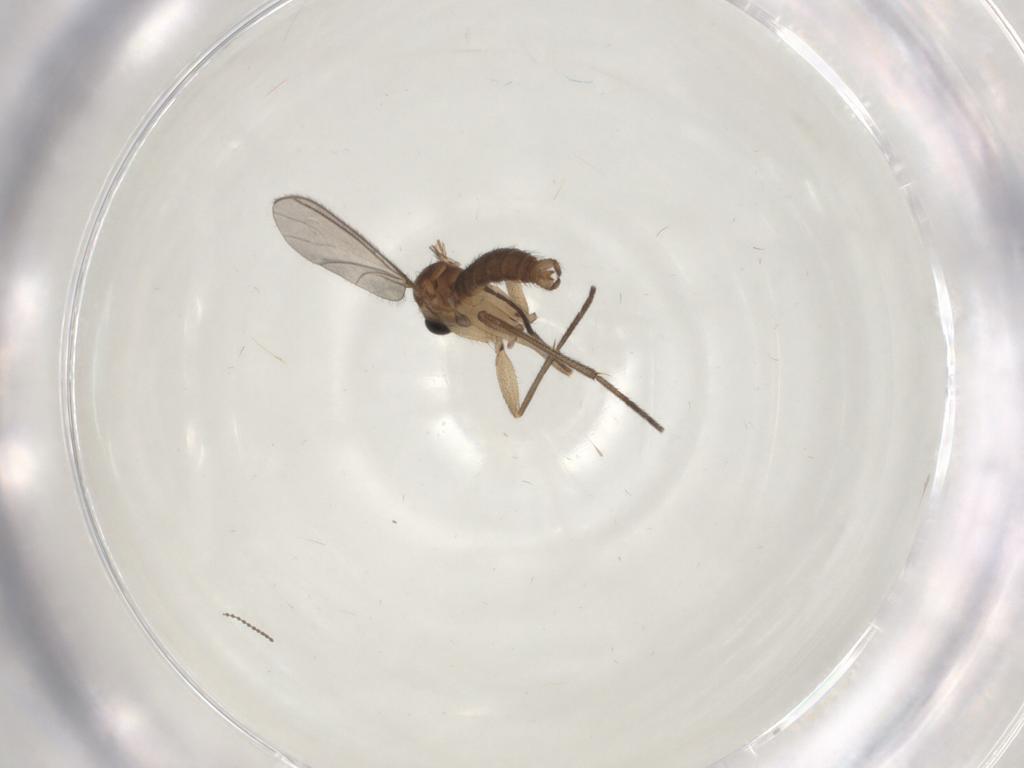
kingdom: Animalia
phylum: Arthropoda
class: Insecta
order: Diptera
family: Sciaridae
